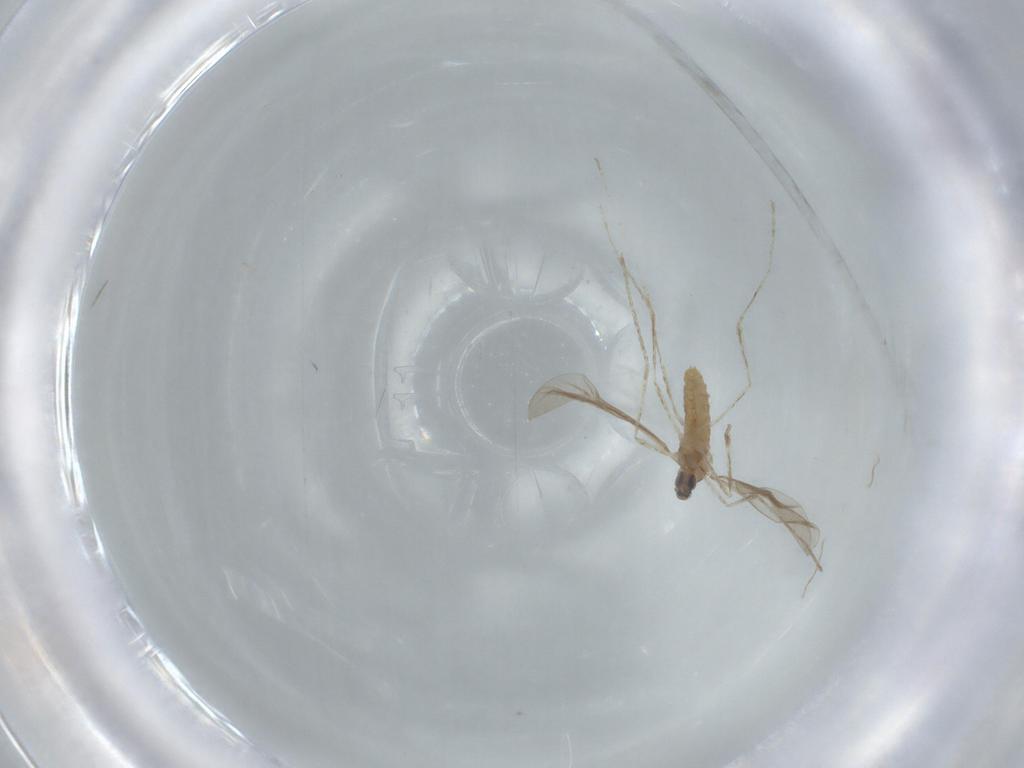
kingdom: Animalia
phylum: Arthropoda
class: Insecta
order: Diptera
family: Cecidomyiidae
